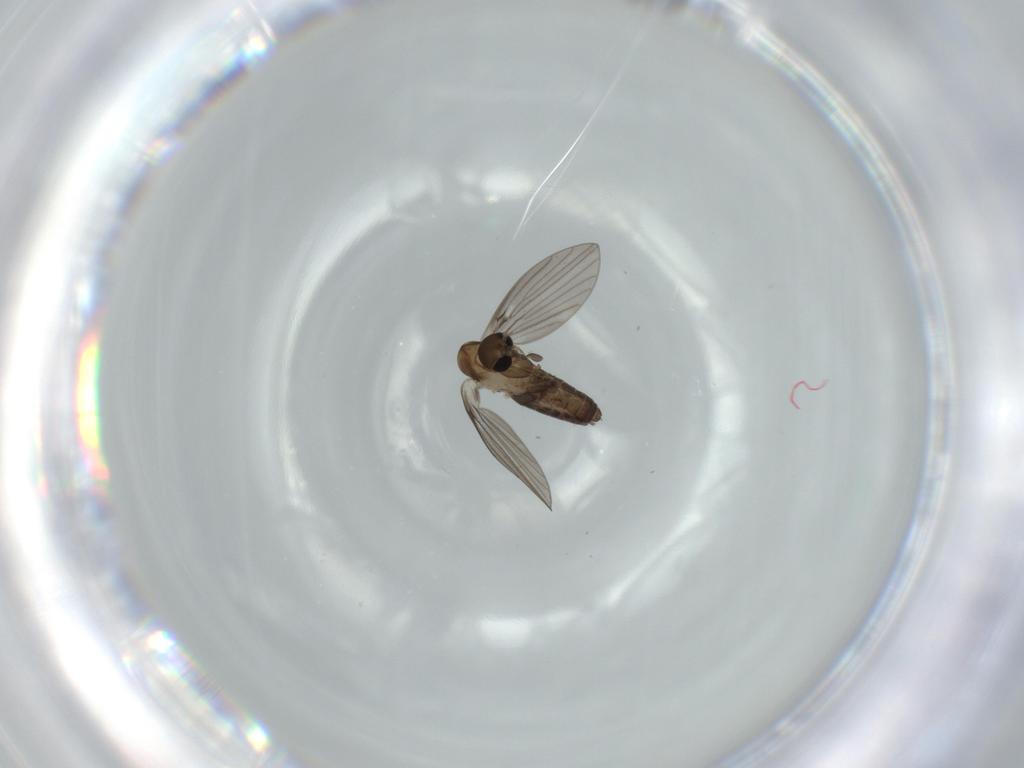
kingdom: Animalia
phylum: Arthropoda
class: Insecta
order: Diptera
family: Psychodidae
